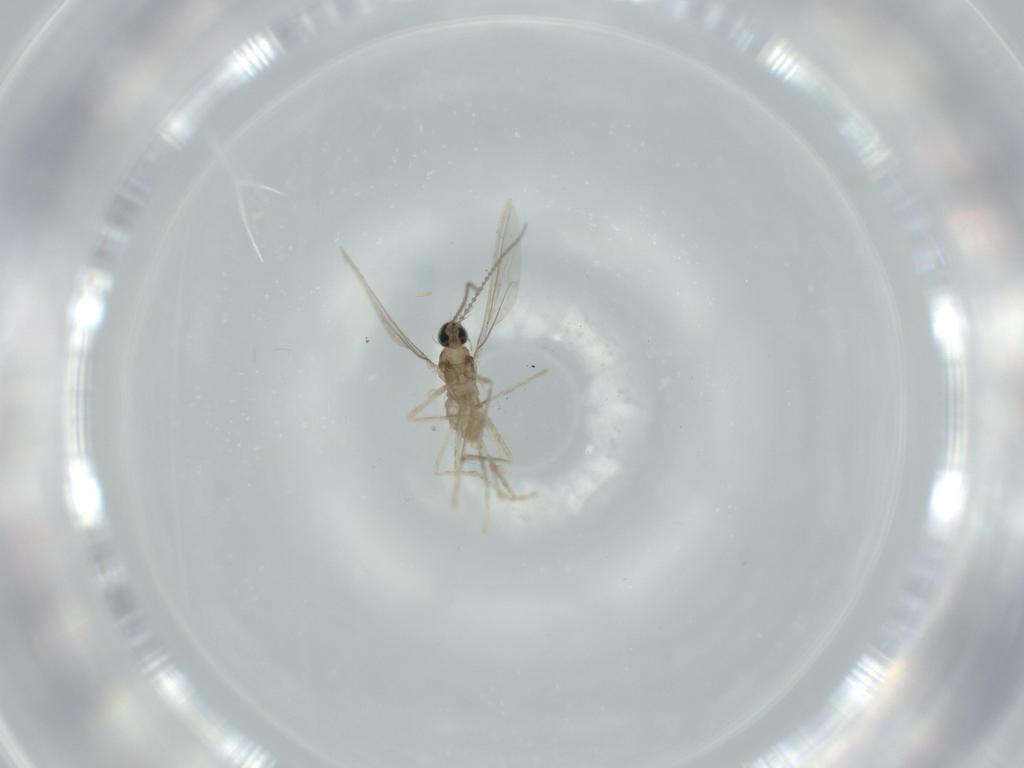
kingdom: Animalia
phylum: Arthropoda
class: Insecta
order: Diptera
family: Cecidomyiidae
